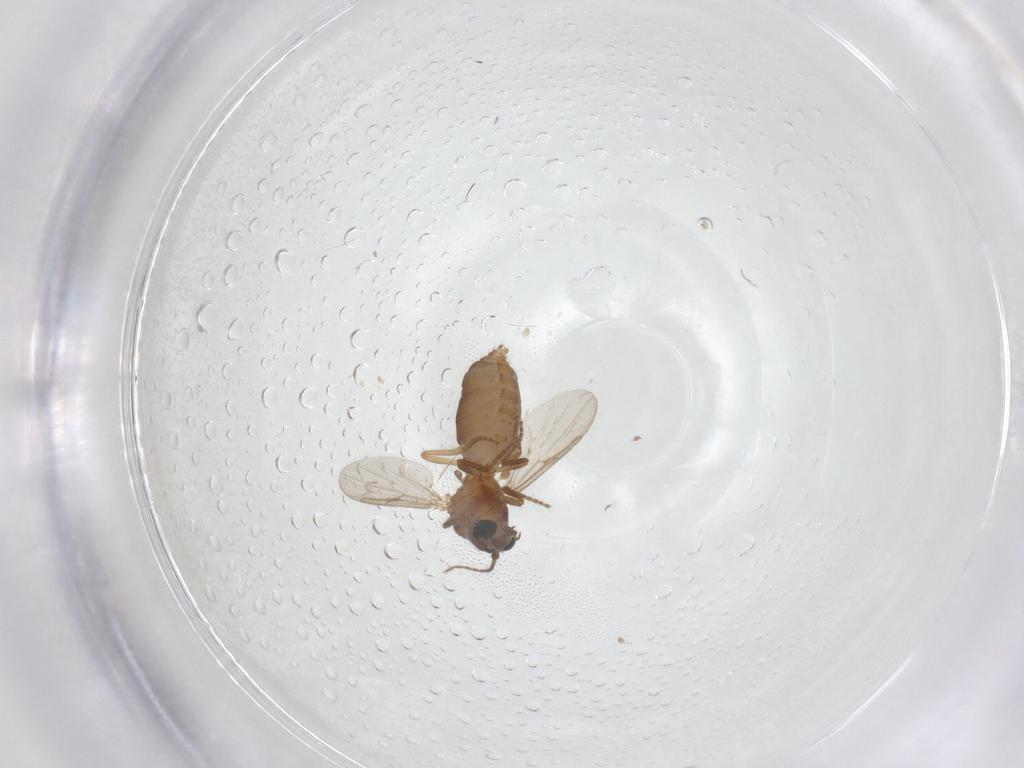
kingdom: Animalia
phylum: Arthropoda
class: Insecta
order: Diptera
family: Ceratopogonidae
